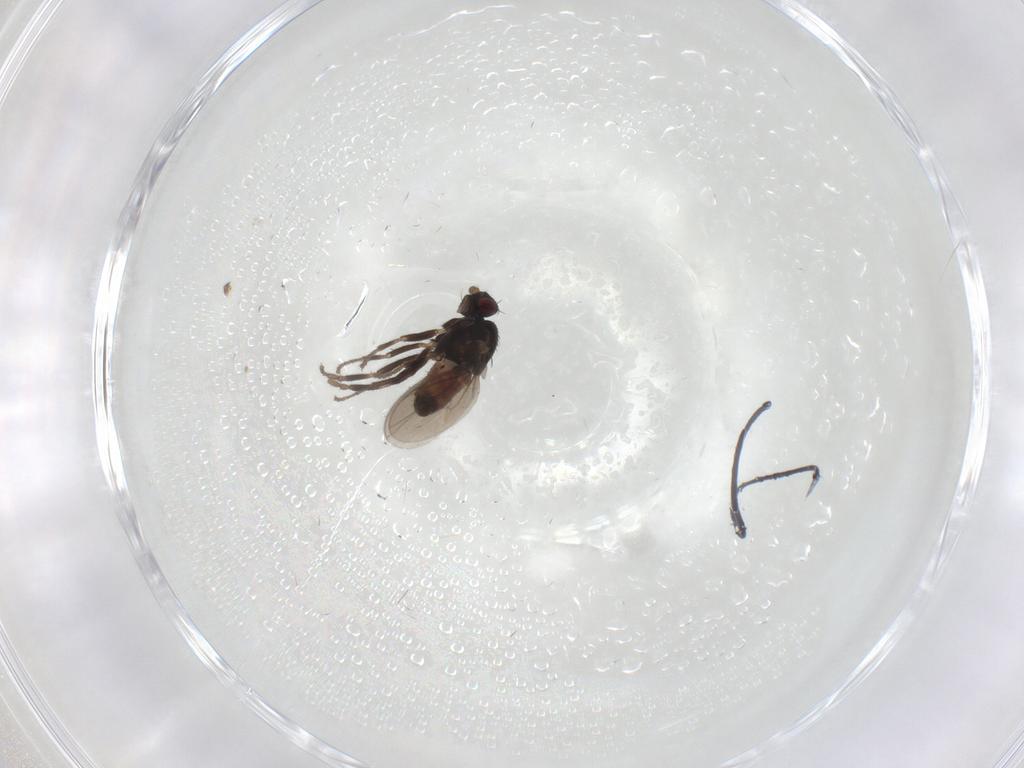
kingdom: Animalia
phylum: Arthropoda
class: Insecta
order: Diptera
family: Sphaeroceridae
